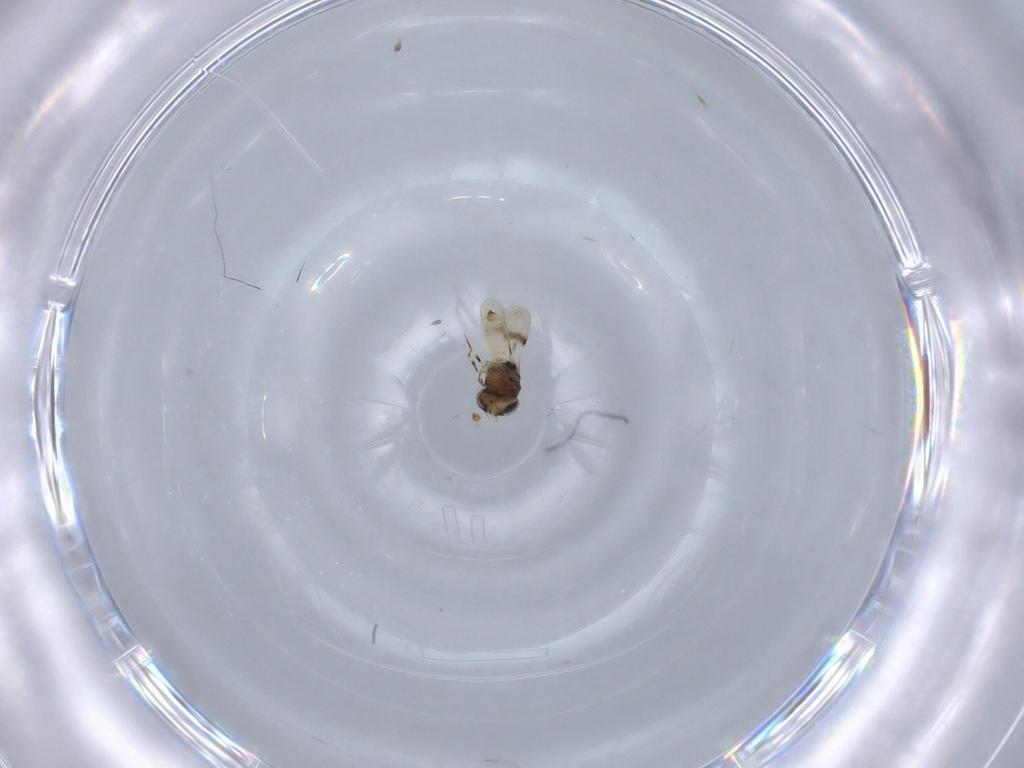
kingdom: Animalia
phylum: Arthropoda
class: Insecta
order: Hymenoptera
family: Scelionidae
